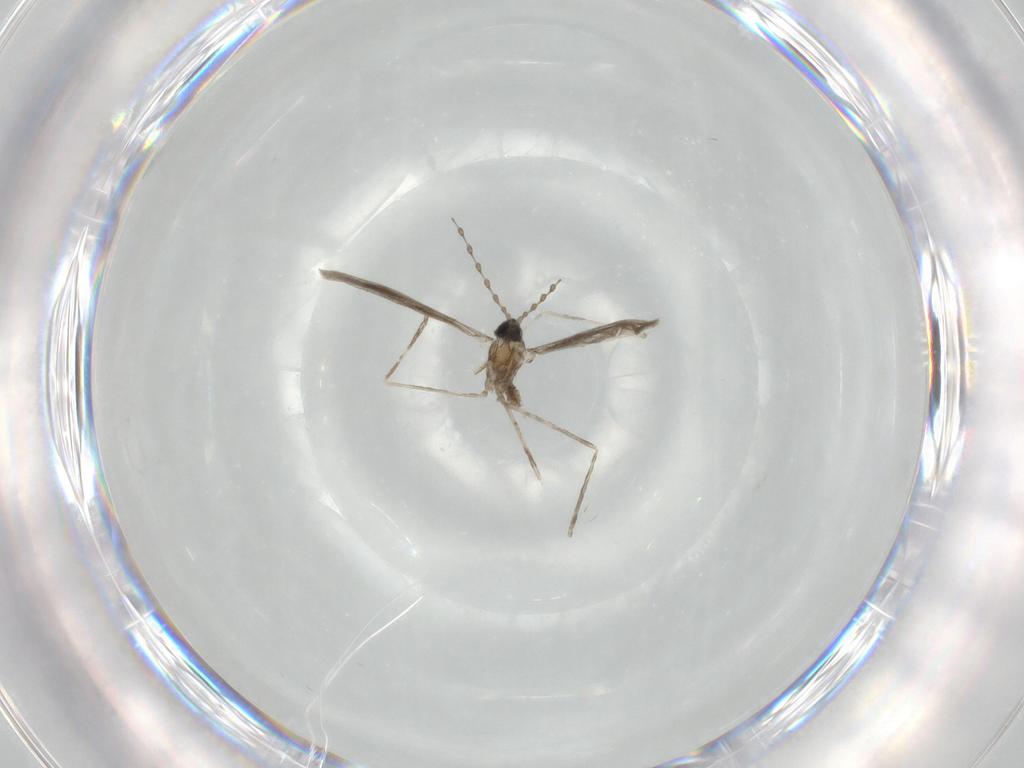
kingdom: Animalia
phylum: Arthropoda
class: Insecta
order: Diptera
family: Cecidomyiidae
